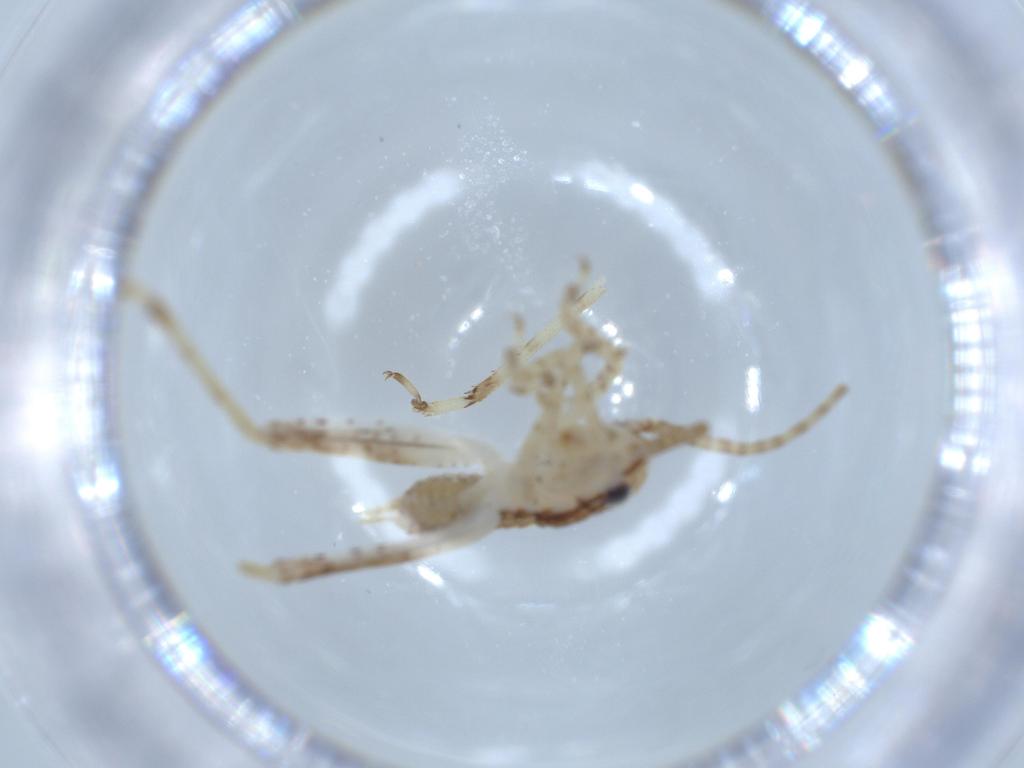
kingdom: Animalia
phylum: Arthropoda
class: Insecta
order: Orthoptera
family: Gryllidae
